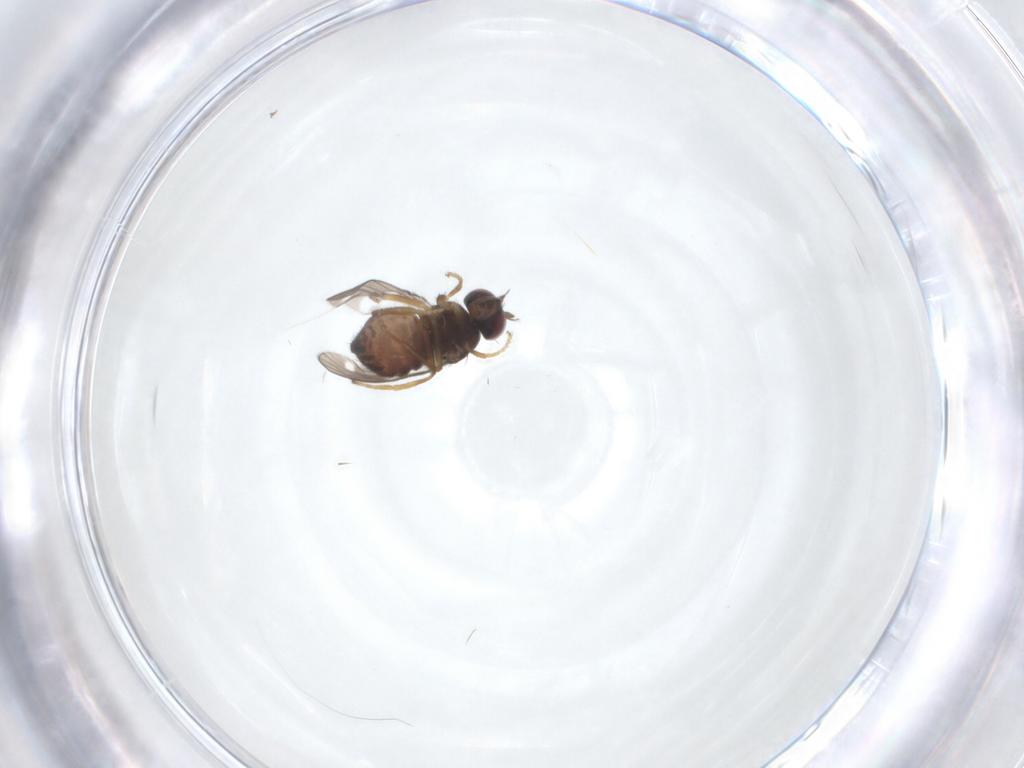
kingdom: Animalia
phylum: Arthropoda
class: Insecta
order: Diptera
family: Ephydridae
